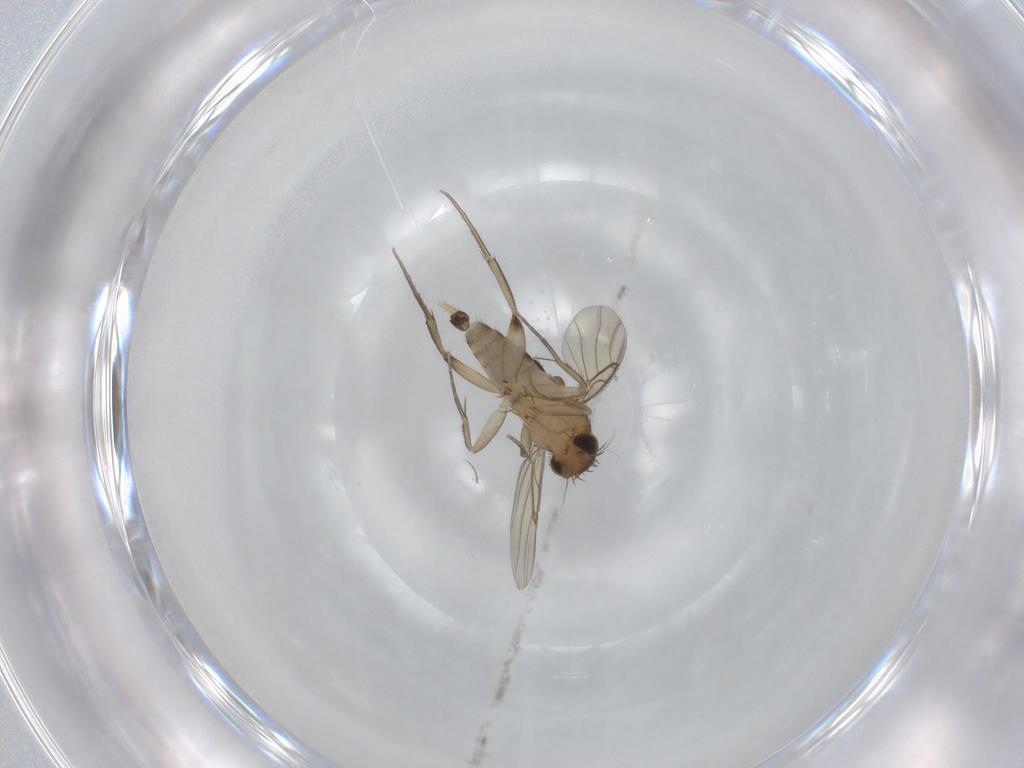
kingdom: Animalia
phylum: Arthropoda
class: Insecta
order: Diptera
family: Phoridae
